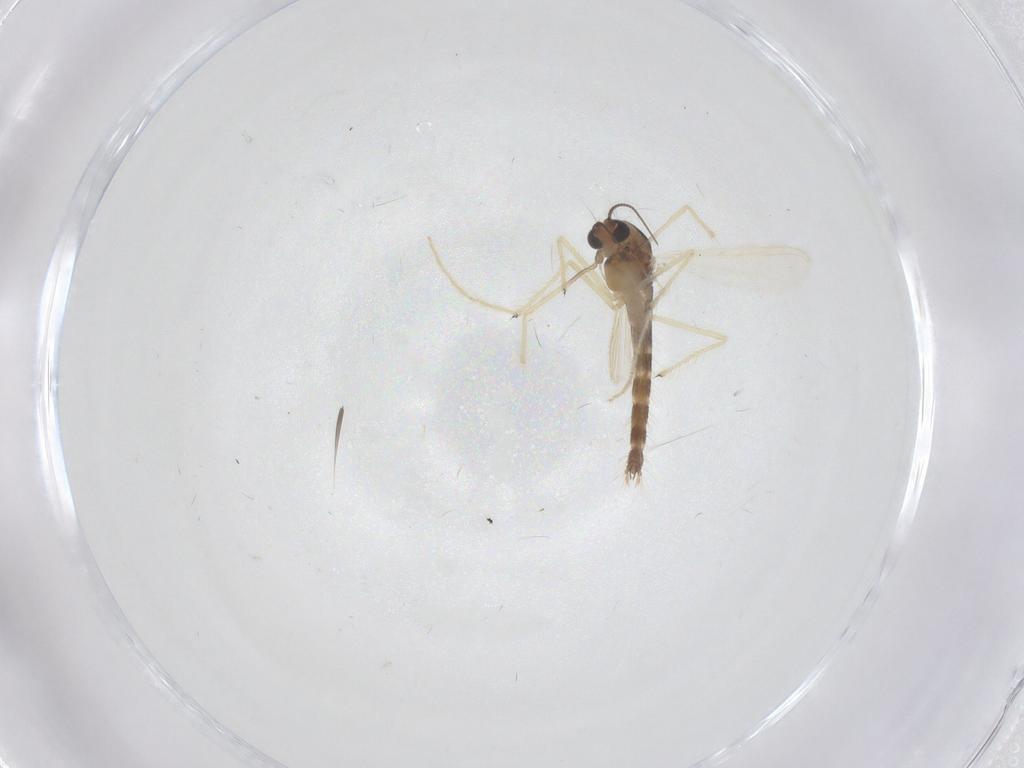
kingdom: Animalia
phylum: Arthropoda
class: Insecta
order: Diptera
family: Chironomidae
